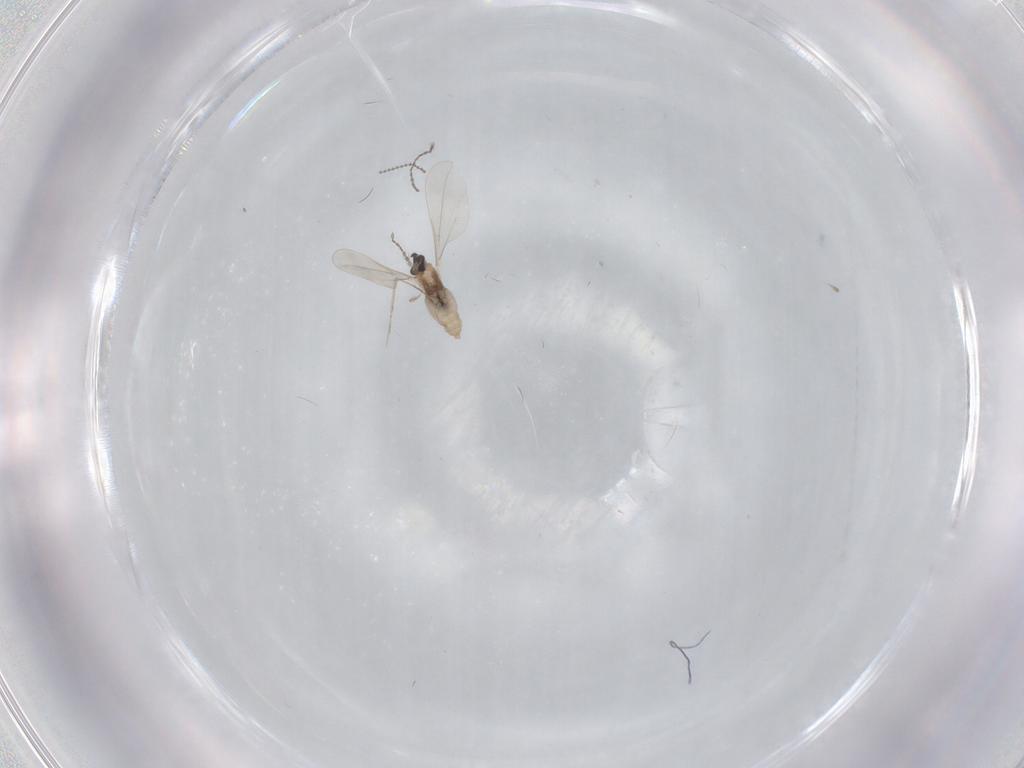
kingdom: Animalia
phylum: Arthropoda
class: Insecta
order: Diptera
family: Cecidomyiidae
